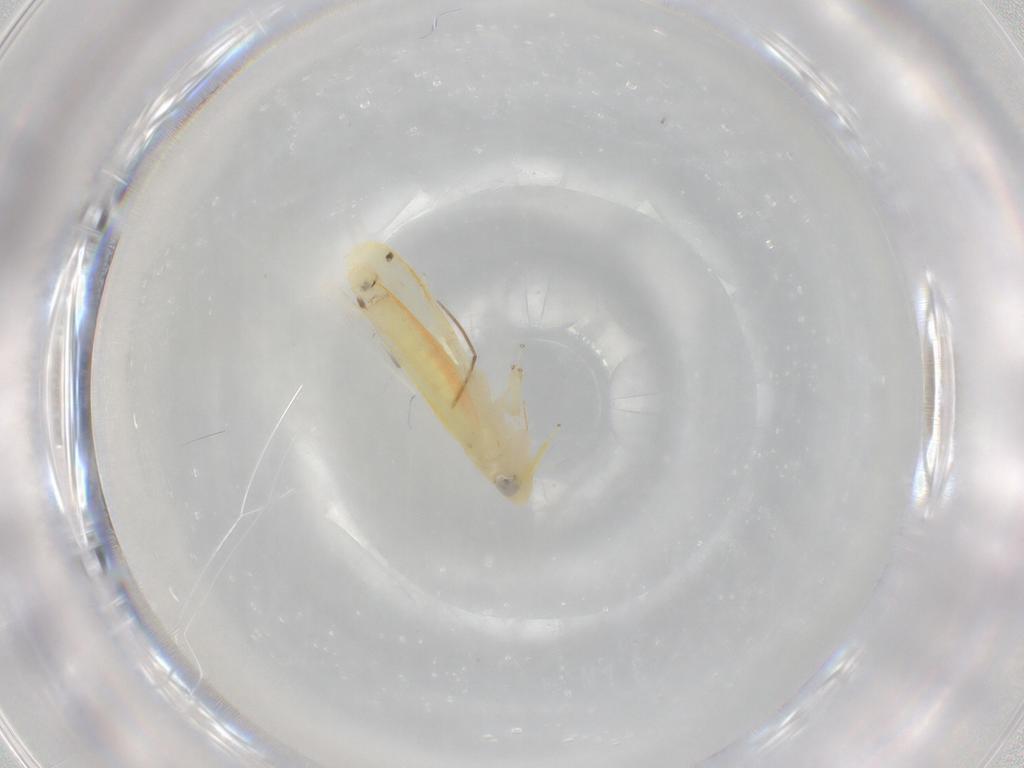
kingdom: Animalia
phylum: Arthropoda
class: Insecta
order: Hemiptera
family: Cicadellidae
